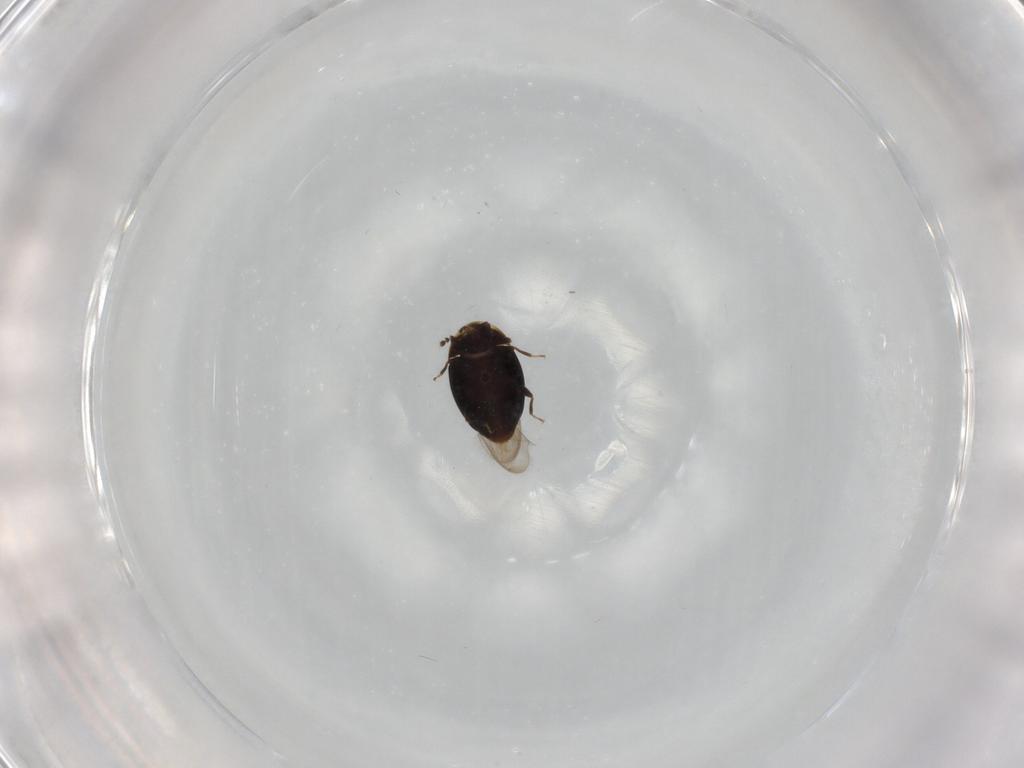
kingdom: Animalia
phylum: Arthropoda
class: Insecta
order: Coleoptera
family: Corylophidae
